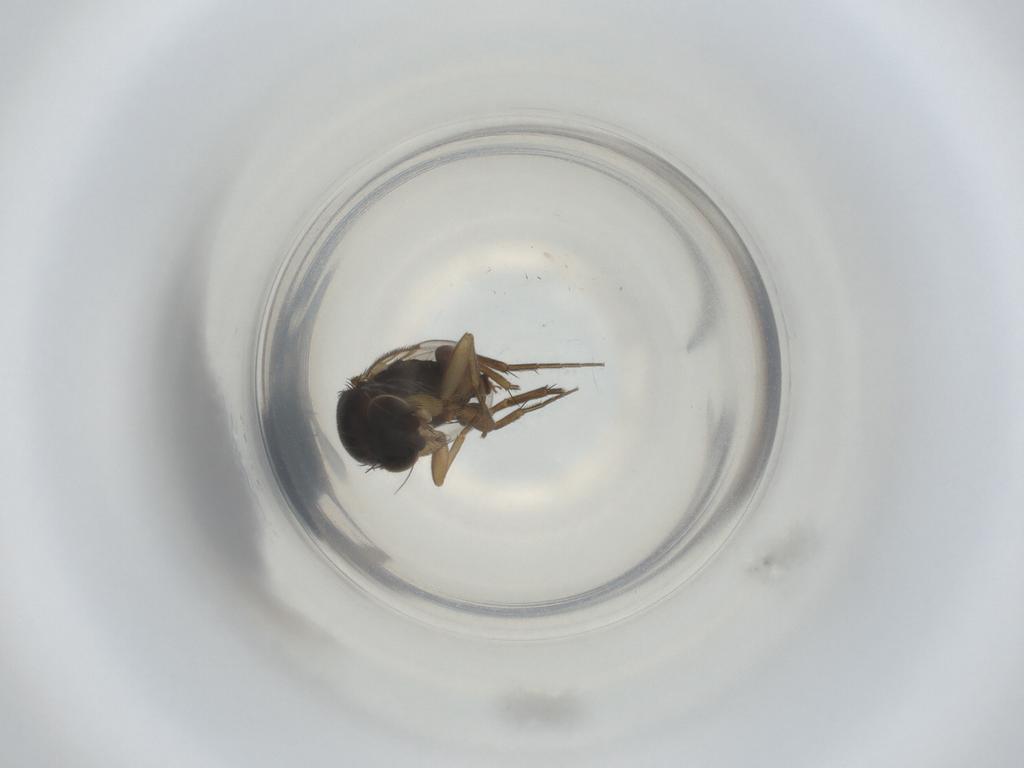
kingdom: Animalia
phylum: Arthropoda
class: Insecta
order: Diptera
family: Phoridae
